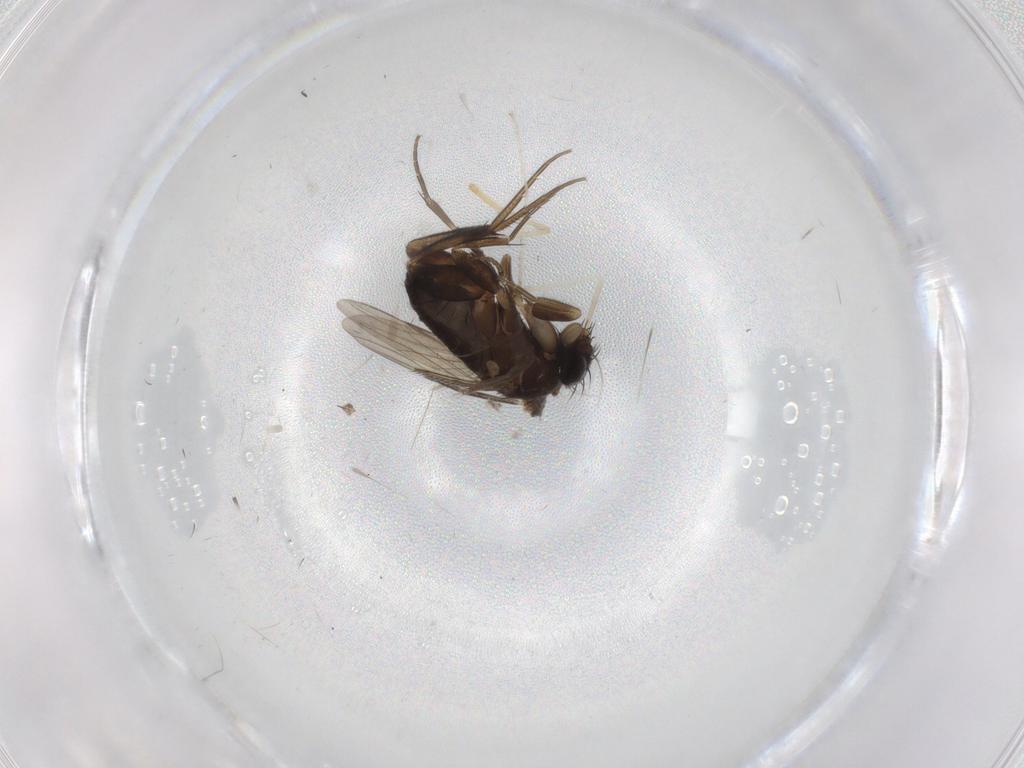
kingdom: Animalia
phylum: Arthropoda
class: Insecta
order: Diptera
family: Phoridae
